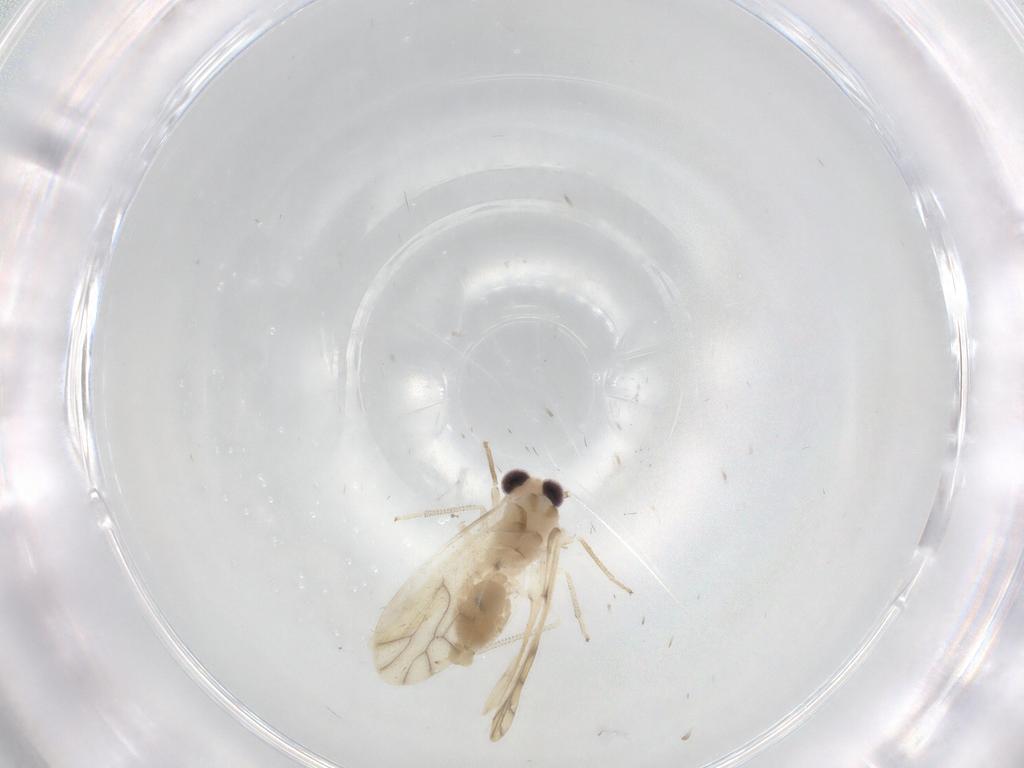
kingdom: Animalia
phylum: Arthropoda
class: Insecta
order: Psocodea
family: Caeciliusidae
